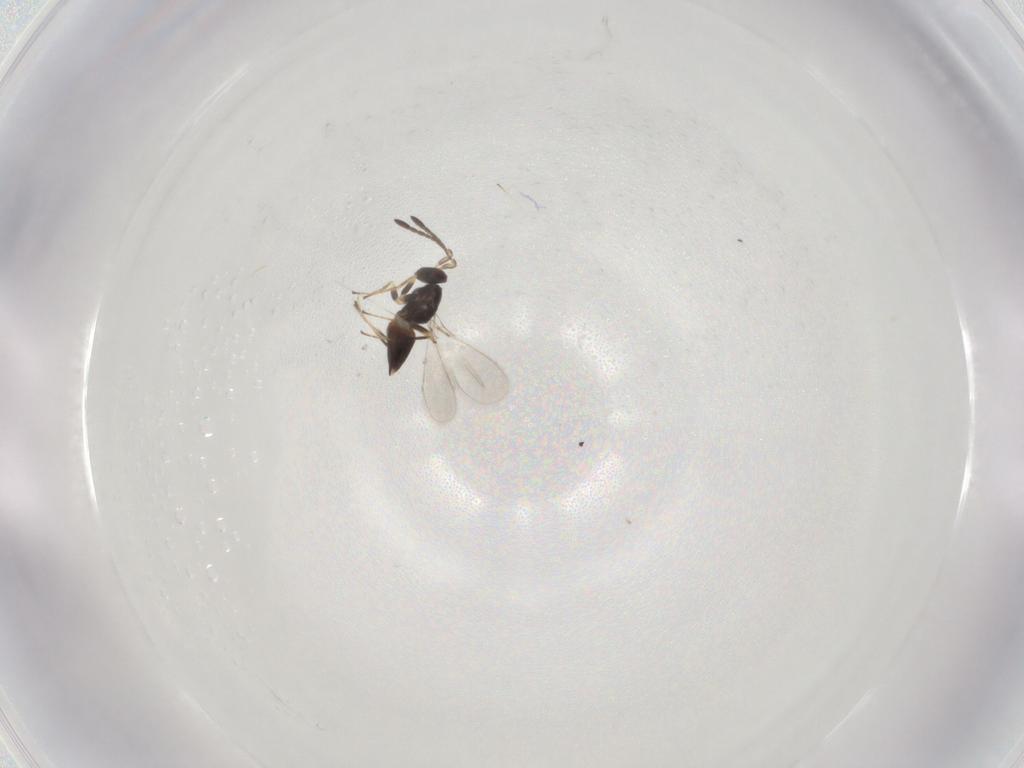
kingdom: Animalia
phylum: Arthropoda
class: Insecta
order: Hymenoptera
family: Mymaridae
